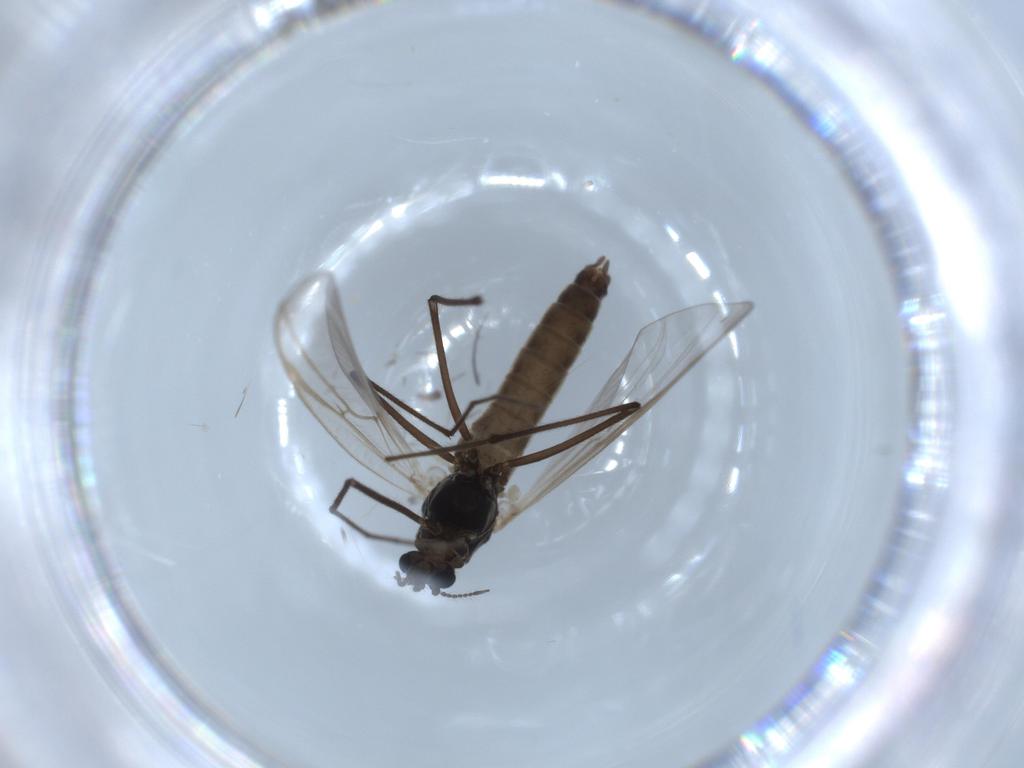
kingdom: Animalia
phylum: Arthropoda
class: Insecta
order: Diptera
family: Chironomidae
